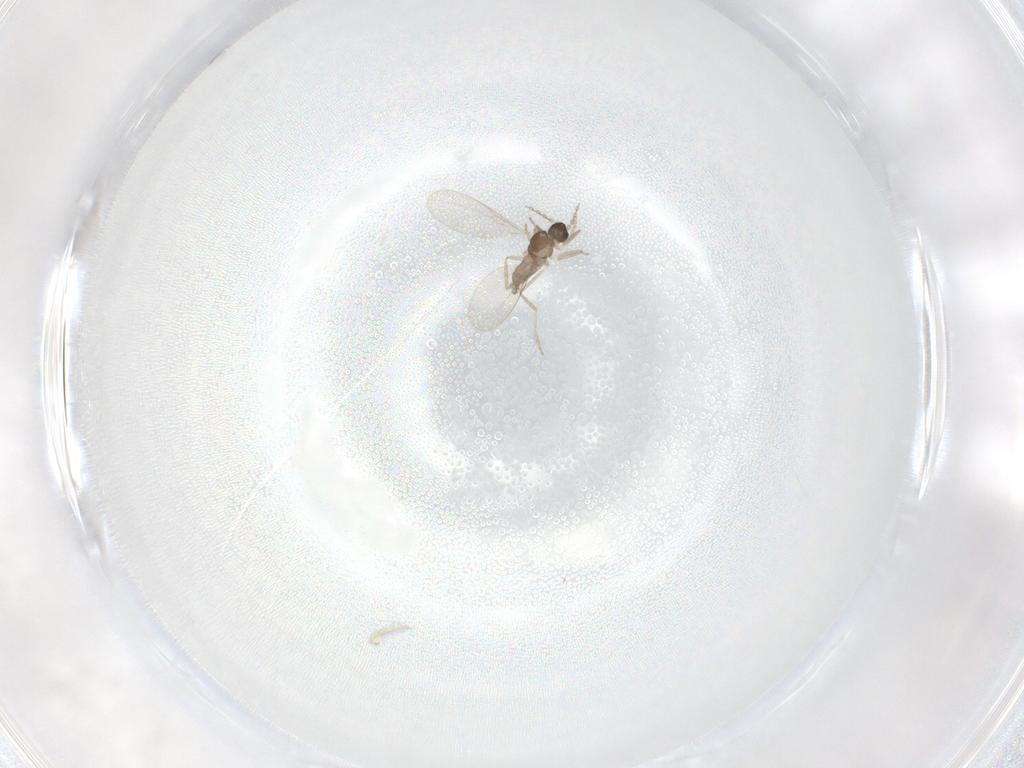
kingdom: Animalia
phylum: Arthropoda
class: Insecta
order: Diptera
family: Cecidomyiidae
